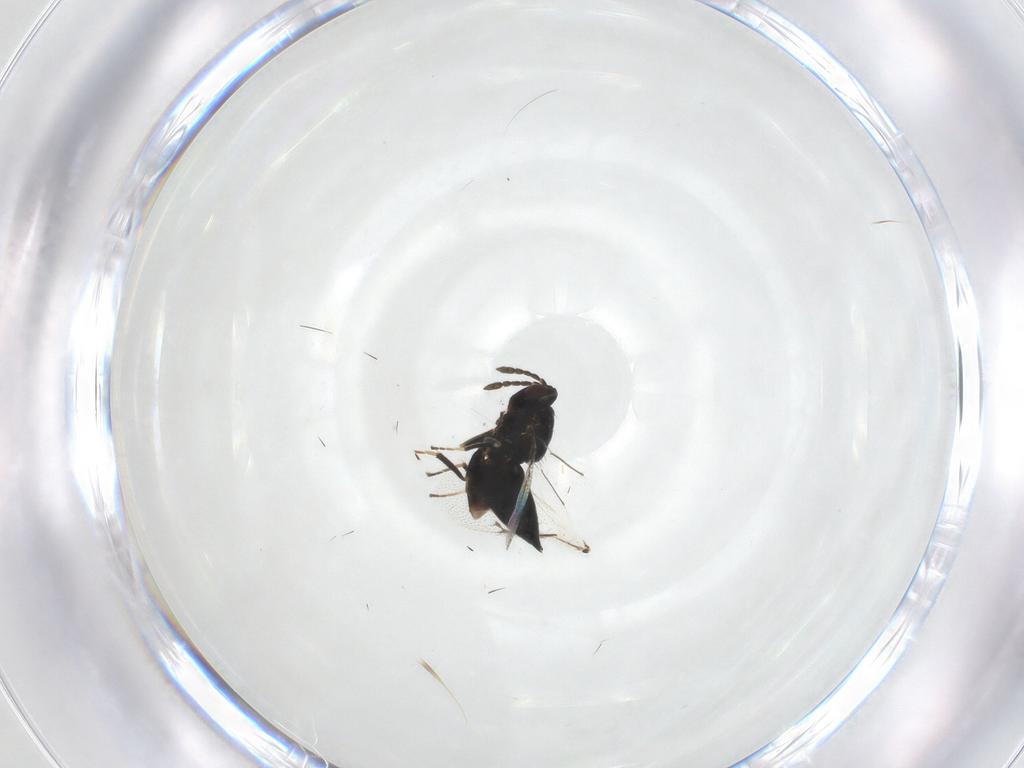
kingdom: Animalia
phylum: Arthropoda
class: Insecta
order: Hymenoptera
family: Eulophidae
